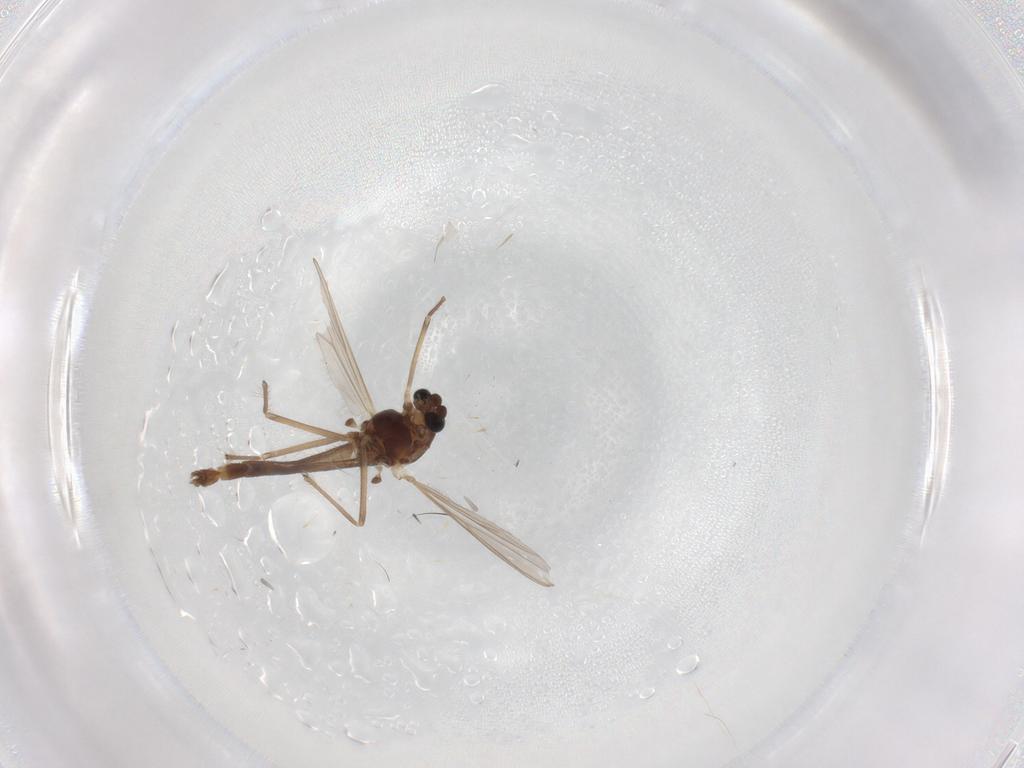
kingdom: Animalia
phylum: Arthropoda
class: Insecta
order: Diptera
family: Chironomidae
